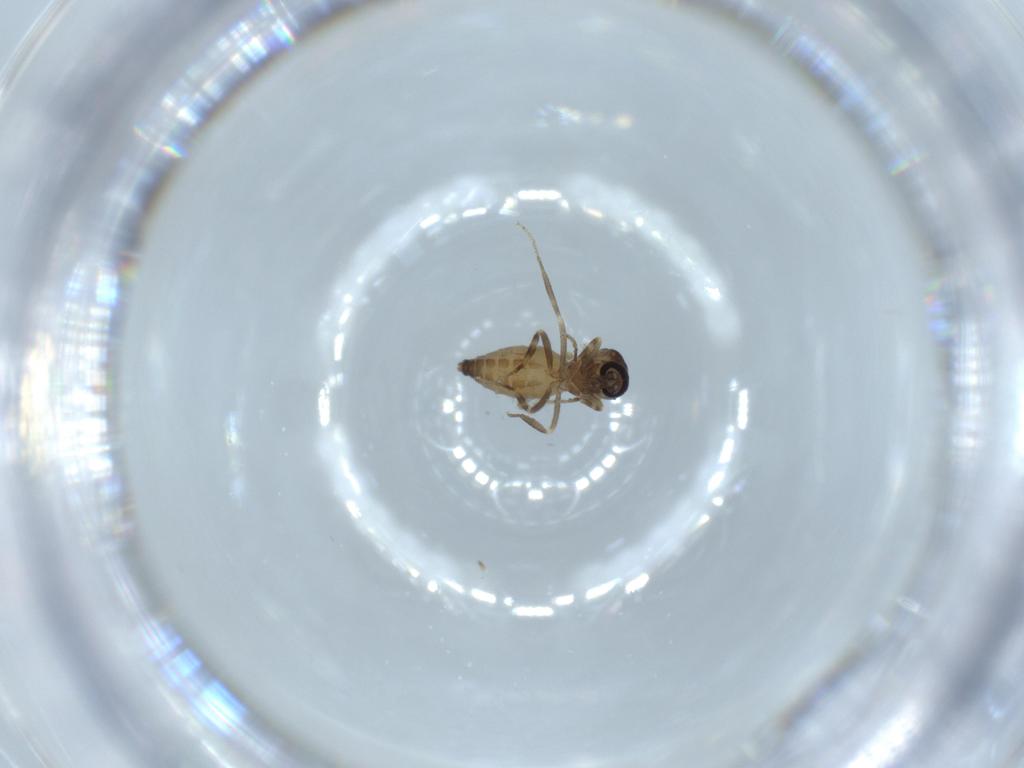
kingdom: Animalia
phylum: Arthropoda
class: Insecta
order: Diptera
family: Ceratopogonidae
